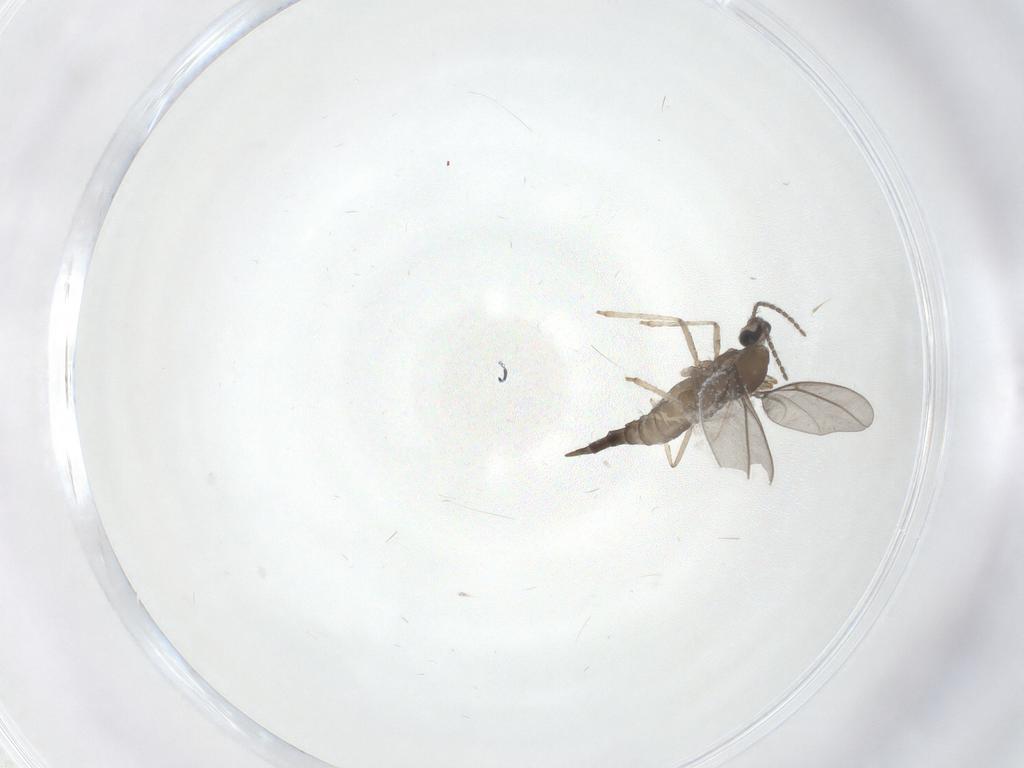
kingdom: Animalia
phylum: Arthropoda
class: Insecta
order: Diptera
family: Cecidomyiidae
